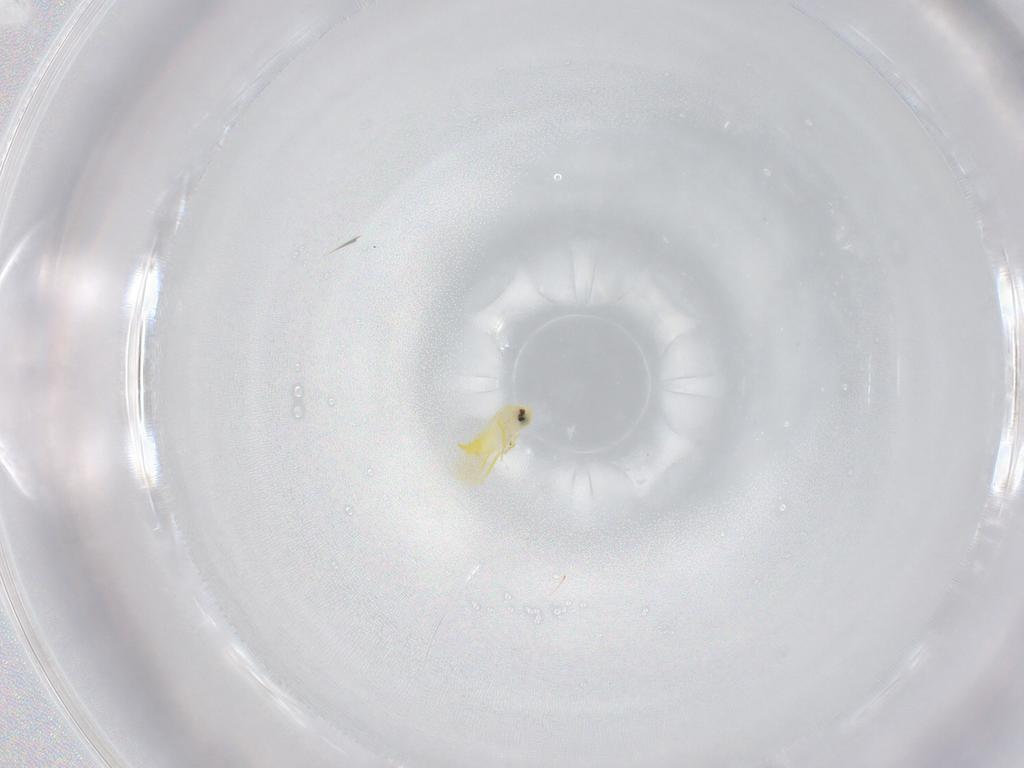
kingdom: Animalia
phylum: Arthropoda
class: Insecta
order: Hemiptera
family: Aleyrodidae
